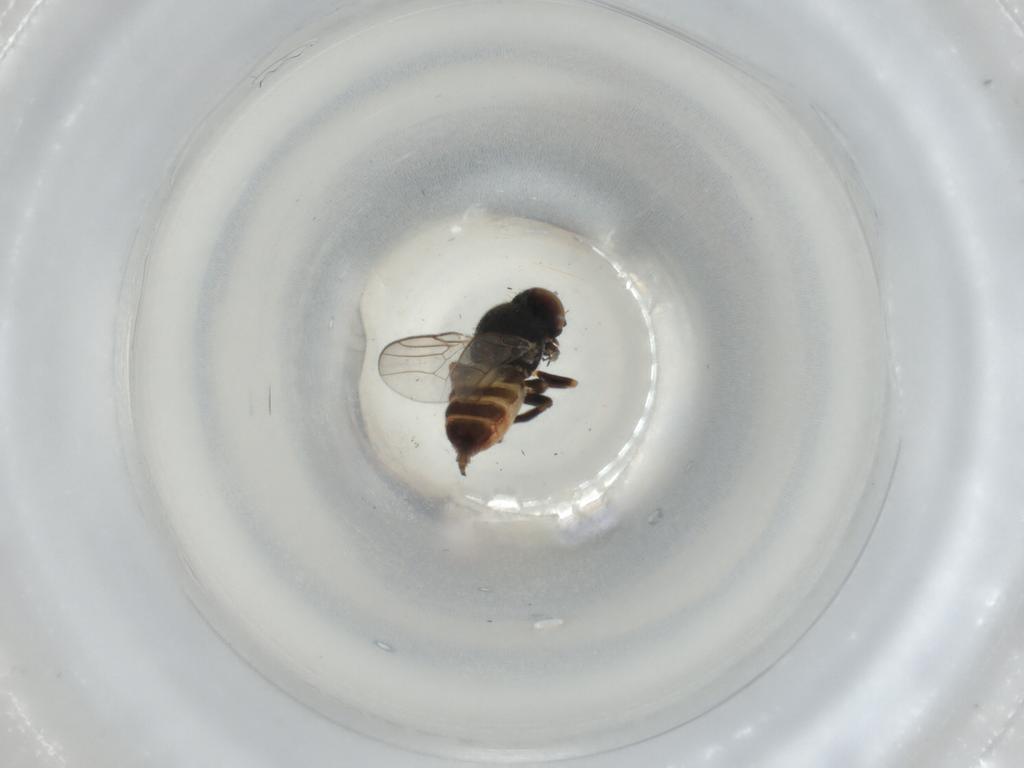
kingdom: Animalia
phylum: Arthropoda
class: Insecta
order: Diptera
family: Chloropidae
